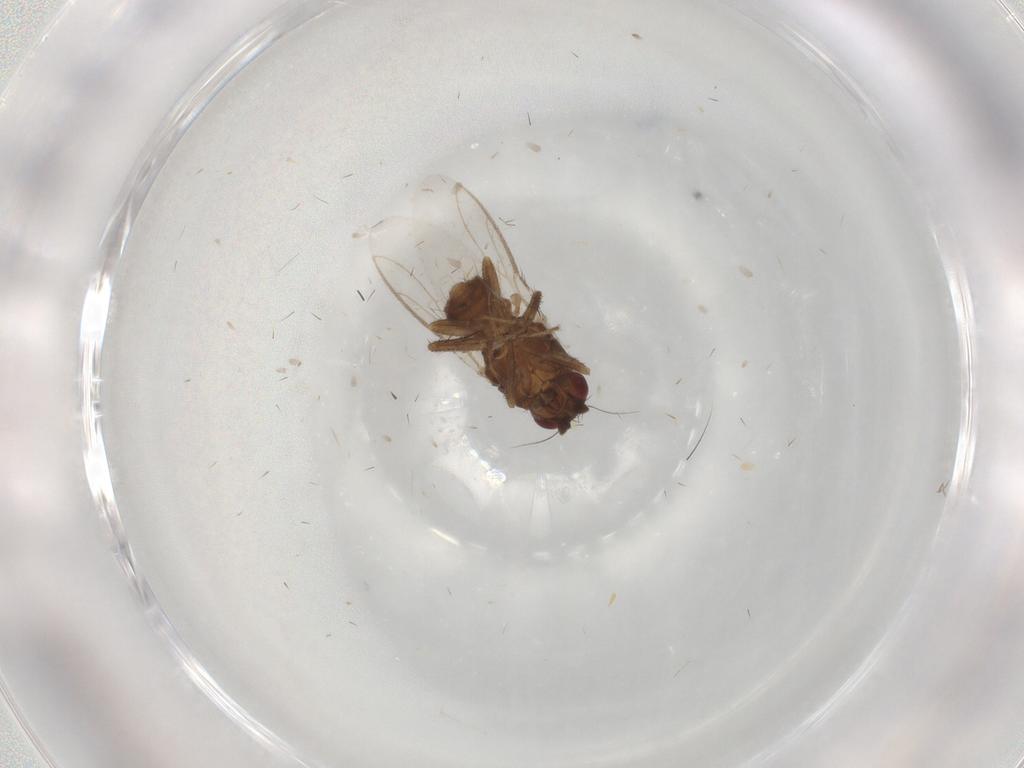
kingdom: Animalia
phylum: Arthropoda
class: Insecta
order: Diptera
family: Sphaeroceridae
